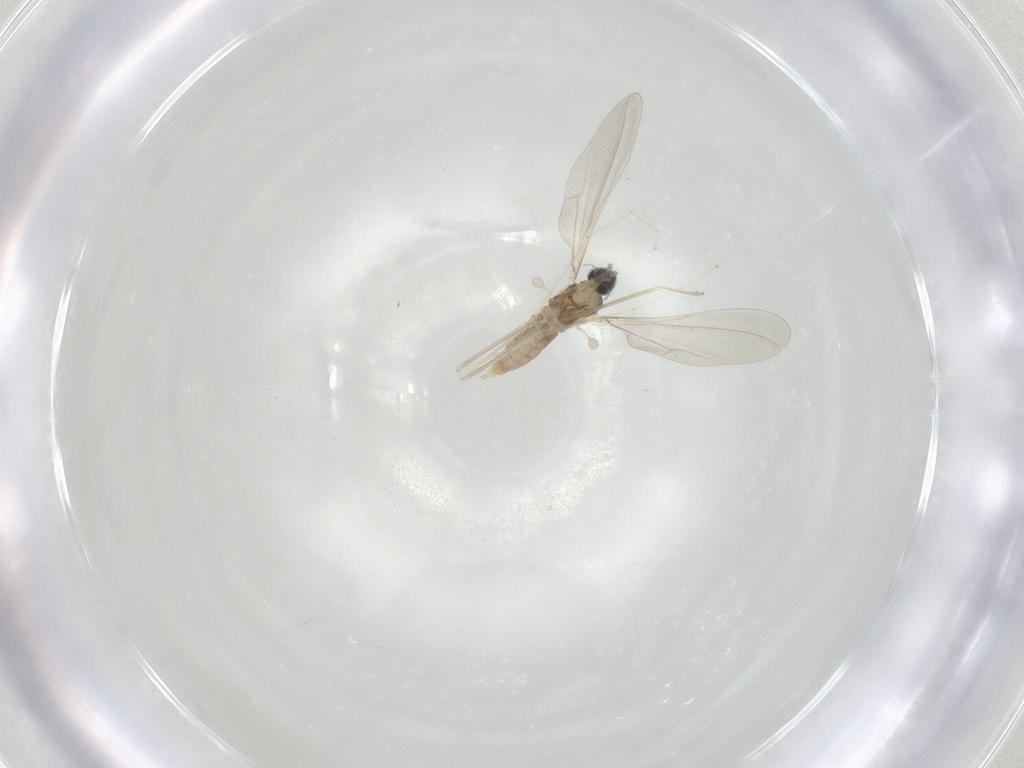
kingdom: Animalia
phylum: Arthropoda
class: Insecta
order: Diptera
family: Cecidomyiidae
